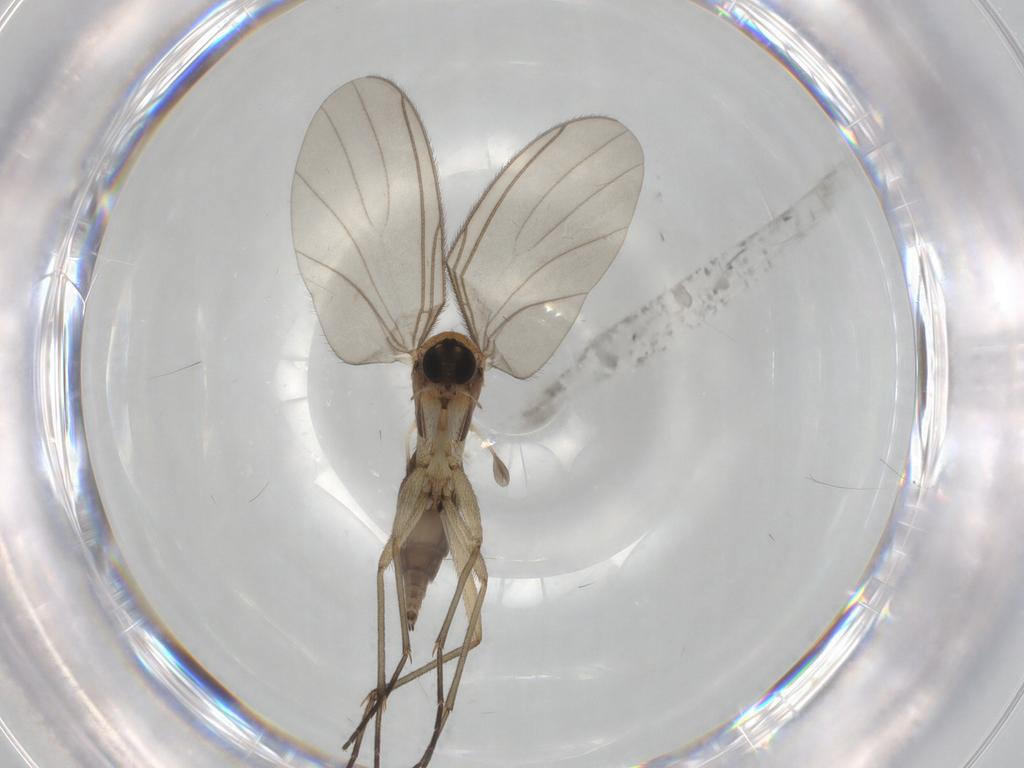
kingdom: Animalia
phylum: Arthropoda
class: Insecta
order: Diptera
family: Sciaridae
